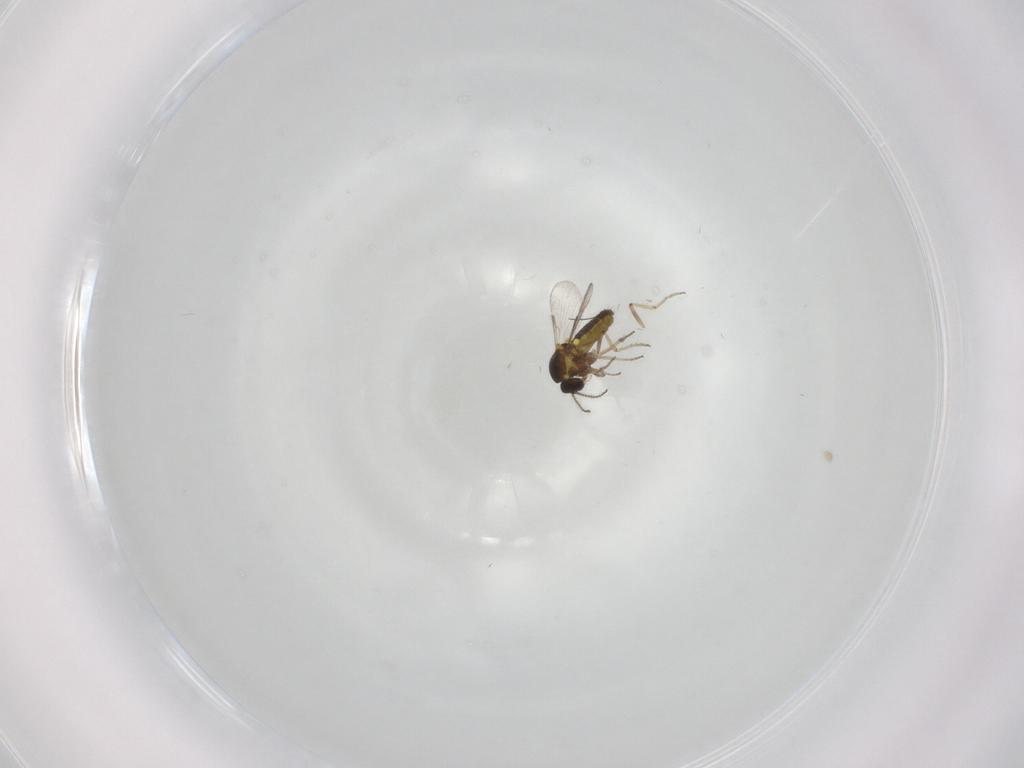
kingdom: Animalia
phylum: Arthropoda
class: Insecta
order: Diptera
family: Ceratopogonidae
